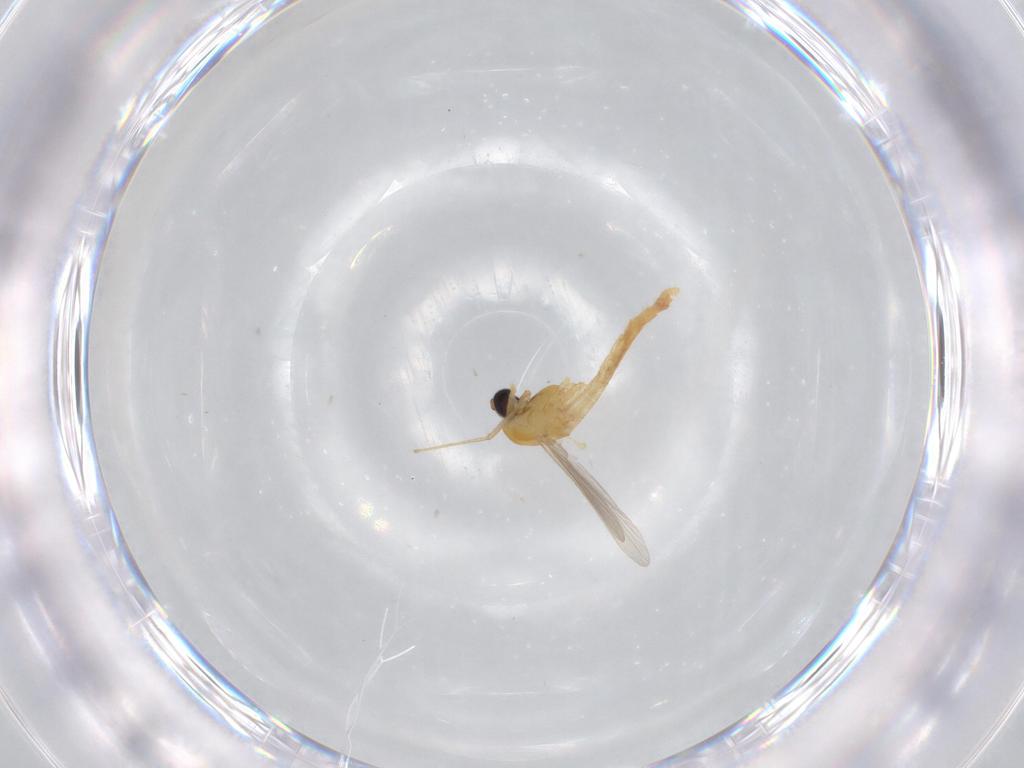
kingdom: Animalia
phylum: Arthropoda
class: Insecta
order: Diptera
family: Chironomidae
